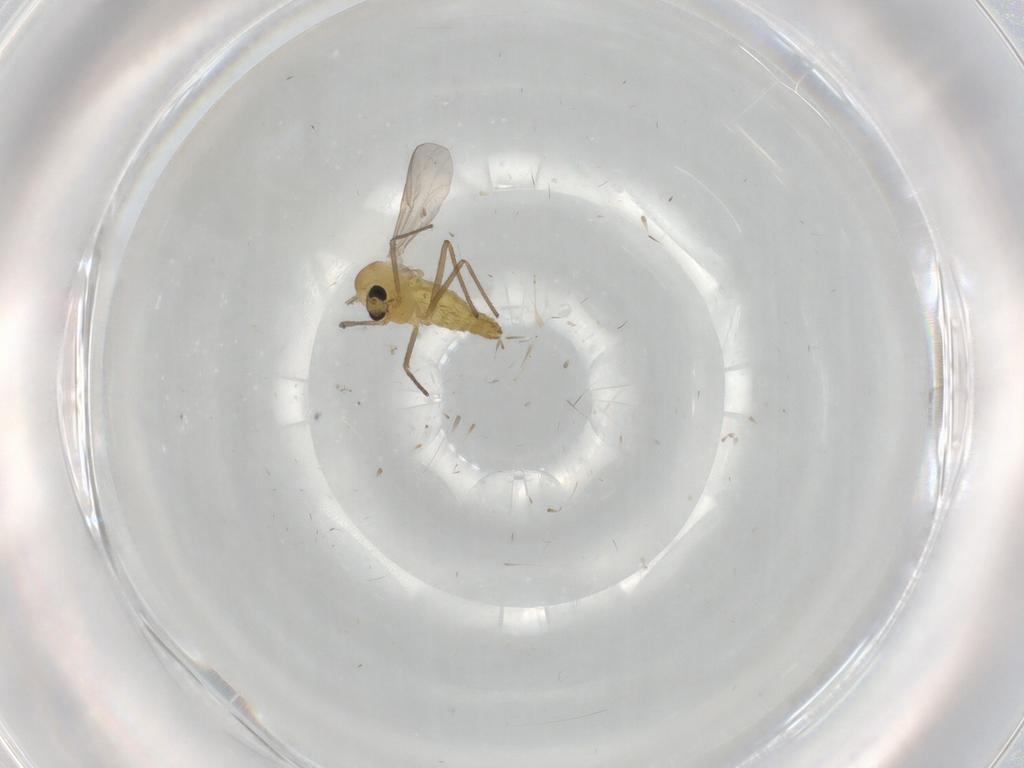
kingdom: Animalia
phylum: Arthropoda
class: Insecta
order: Diptera
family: Chironomidae
